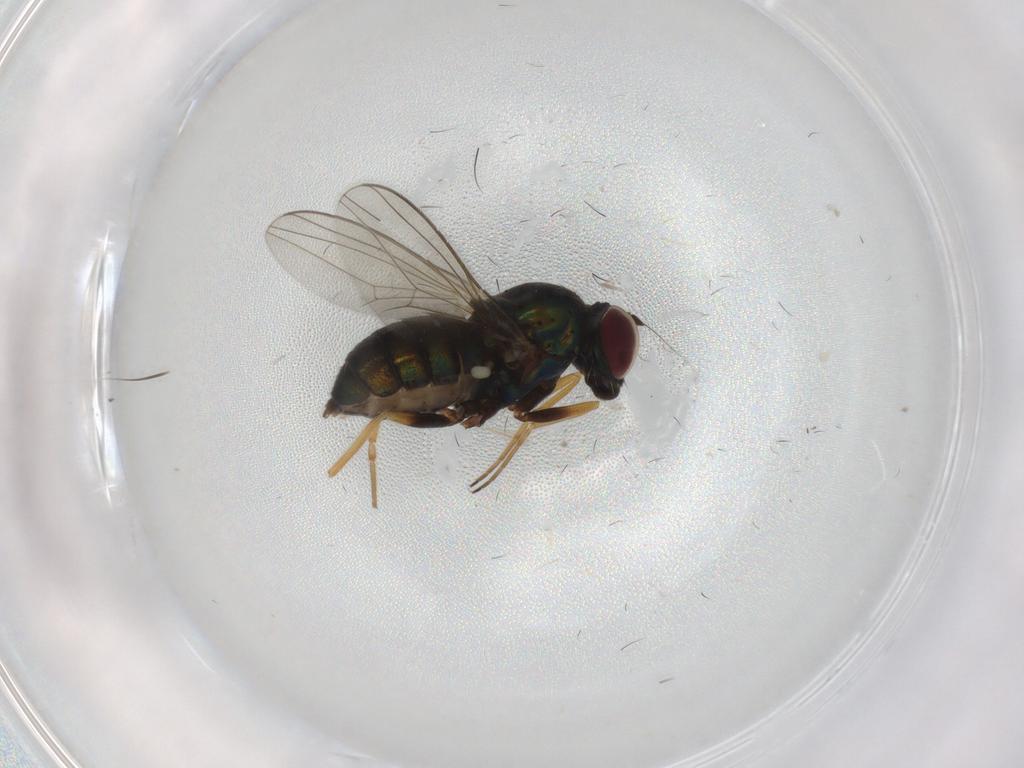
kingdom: Animalia
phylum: Arthropoda
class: Insecta
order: Diptera
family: Dolichopodidae
